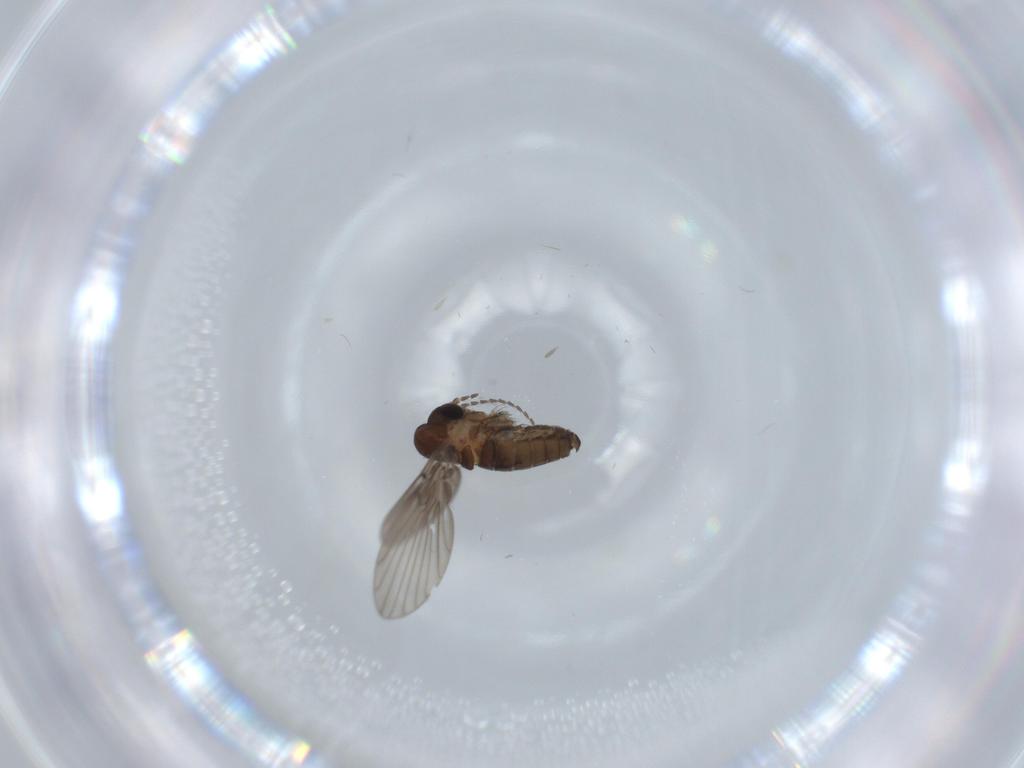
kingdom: Animalia
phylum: Arthropoda
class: Insecta
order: Diptera
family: Psychodidae
